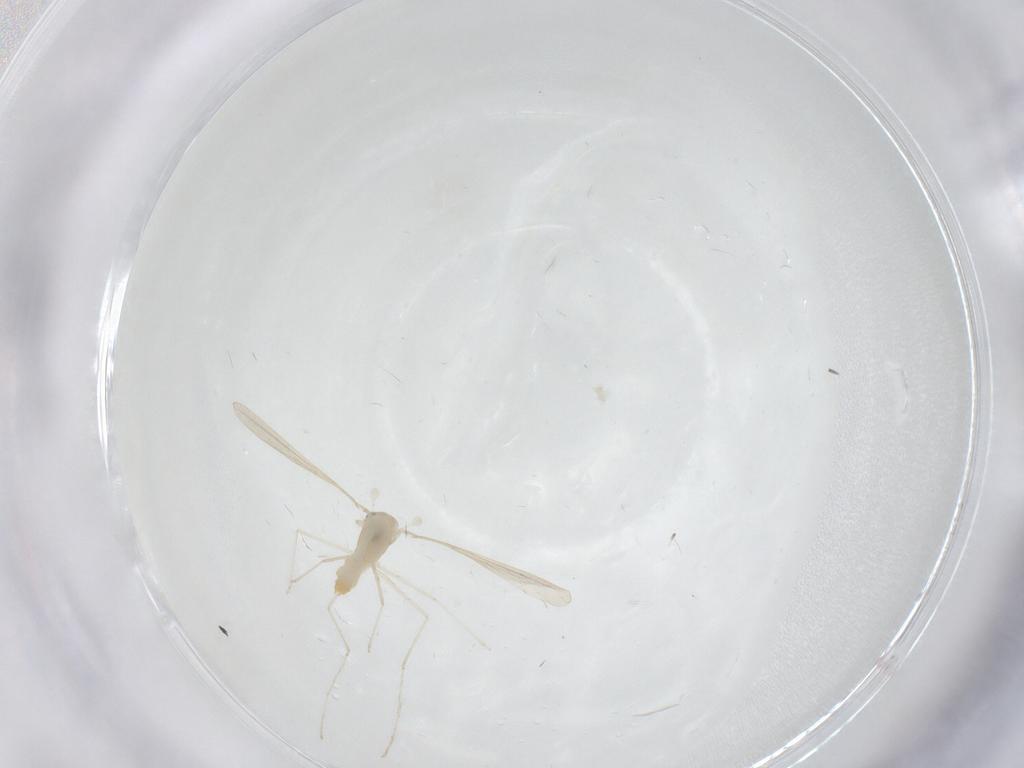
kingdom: Animalia
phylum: Arthropoda
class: Insecta
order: Diptera
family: Cecidomyiidae
